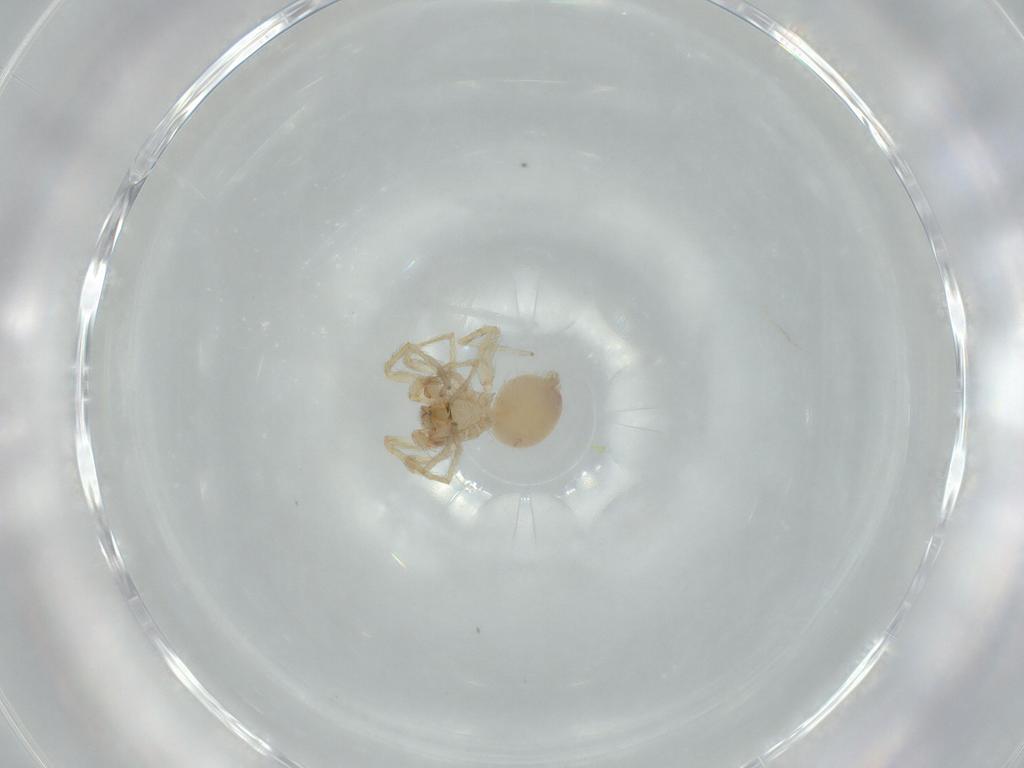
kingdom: Animalia
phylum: Arthropoda
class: Arachnida
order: Araneae
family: Oonopidae
